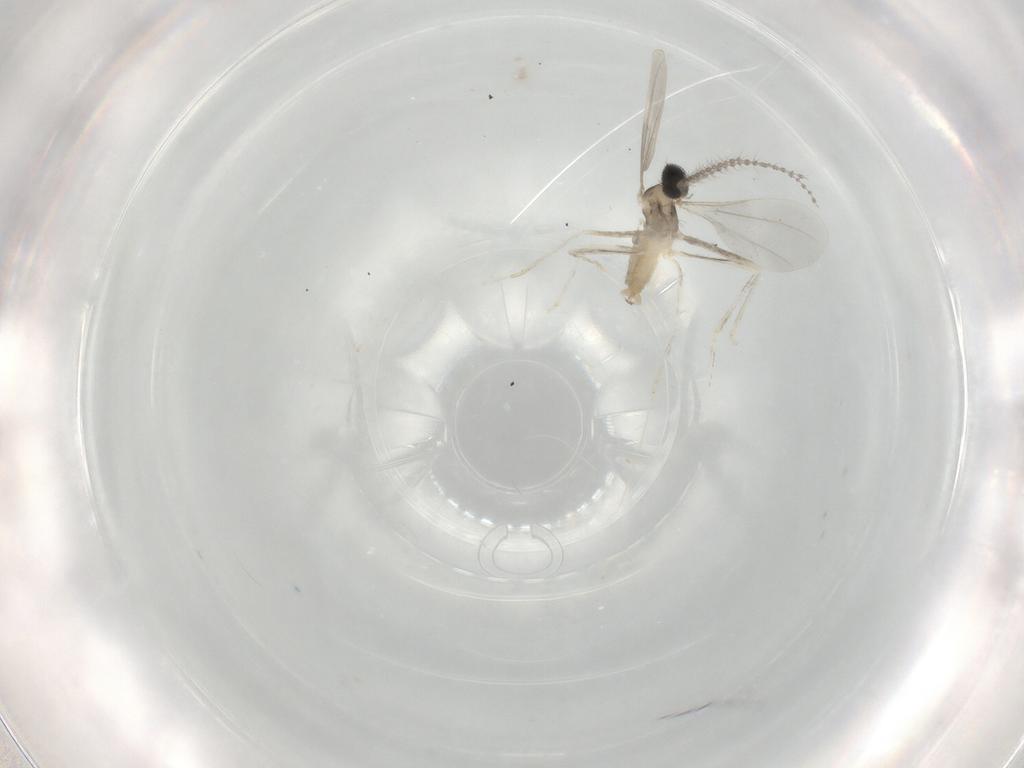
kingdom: Animalia
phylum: Arthropoda
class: Insecta
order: Diptera
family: Cecidomyiidae
